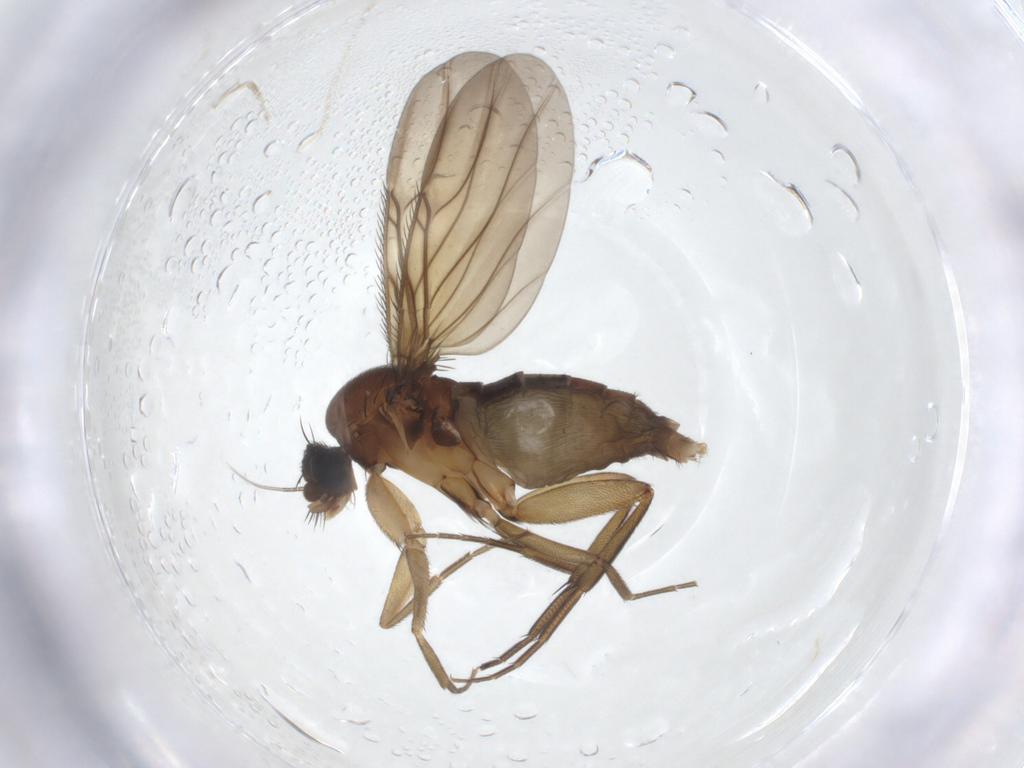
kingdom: Animalia
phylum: Arthropoda
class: Insecta
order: Diptera
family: Phoridae
